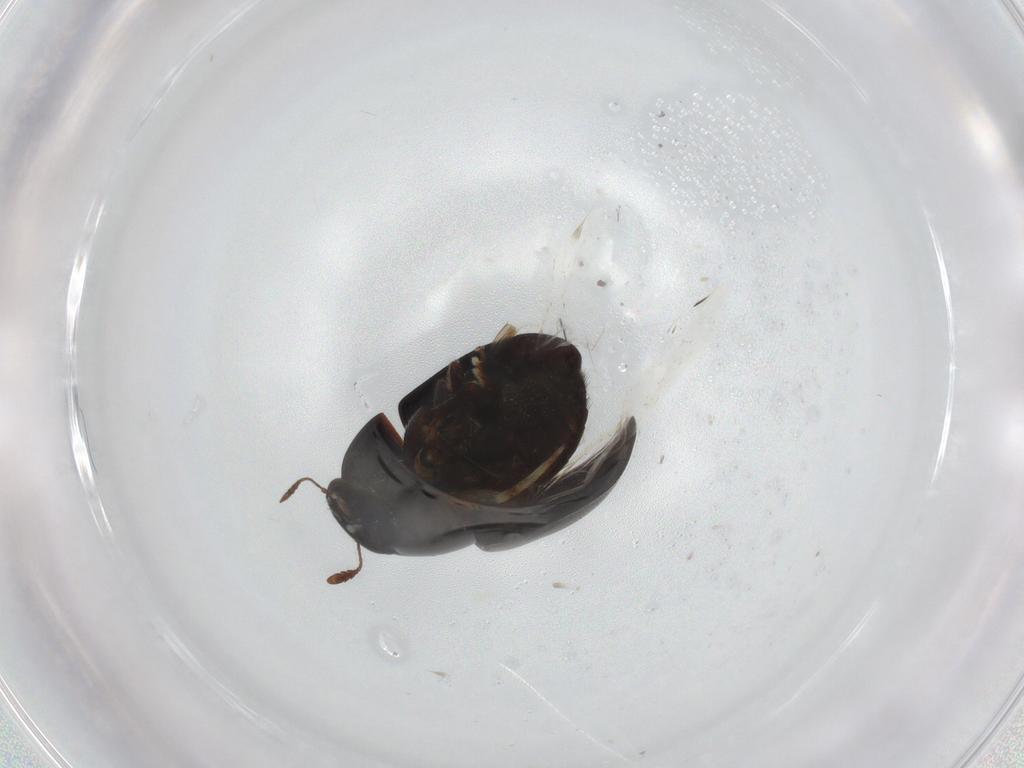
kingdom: Animalia
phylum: Arthropoda
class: Insecta
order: Coleoptera
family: Phalacridae
